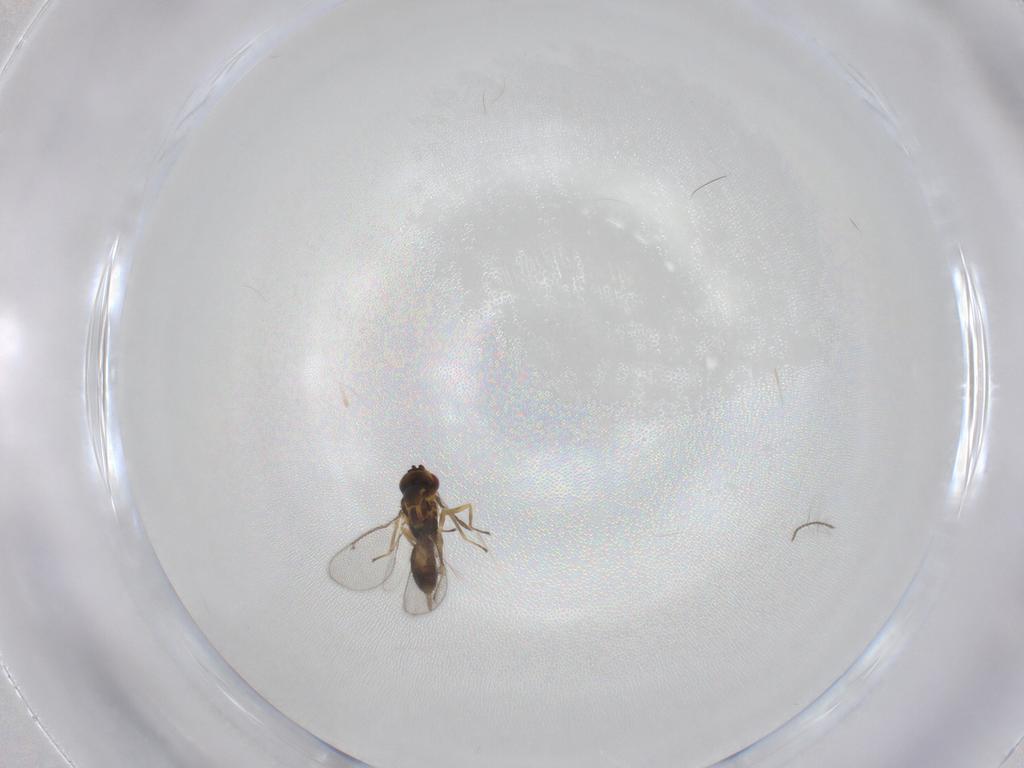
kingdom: Animalia
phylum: Arthropoda
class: Insecta
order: Hymenoptera
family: Eulophidae
